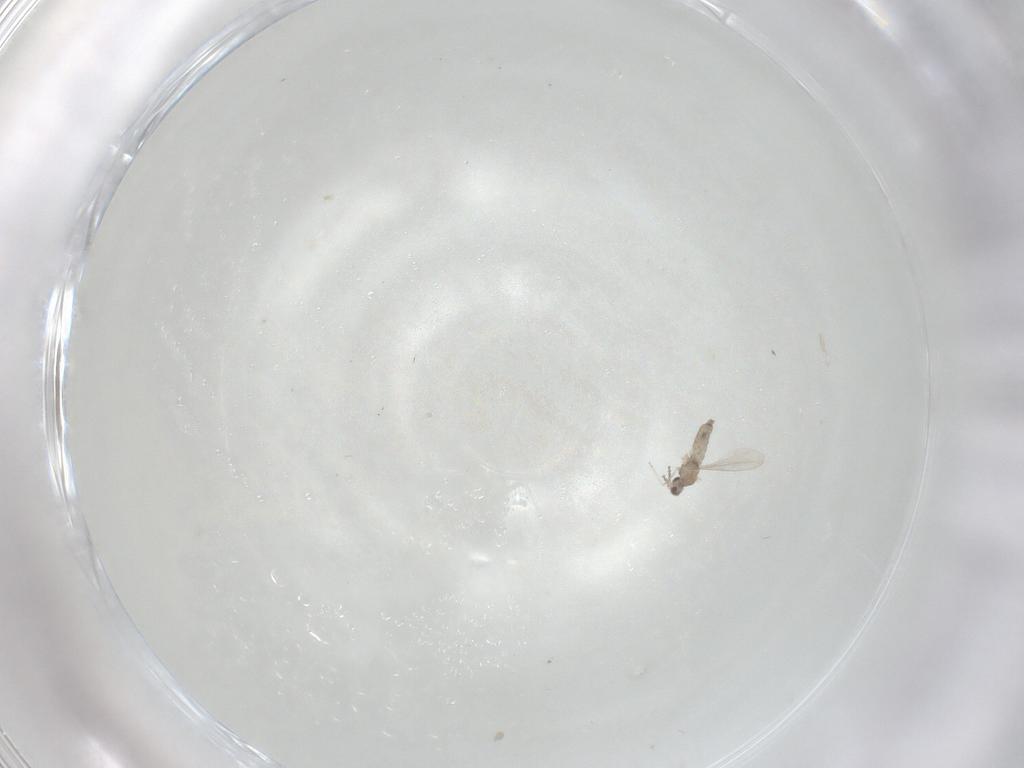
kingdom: Animalia
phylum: Arthropoda
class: Insecta
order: Diptera
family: Cecidomyiidae
